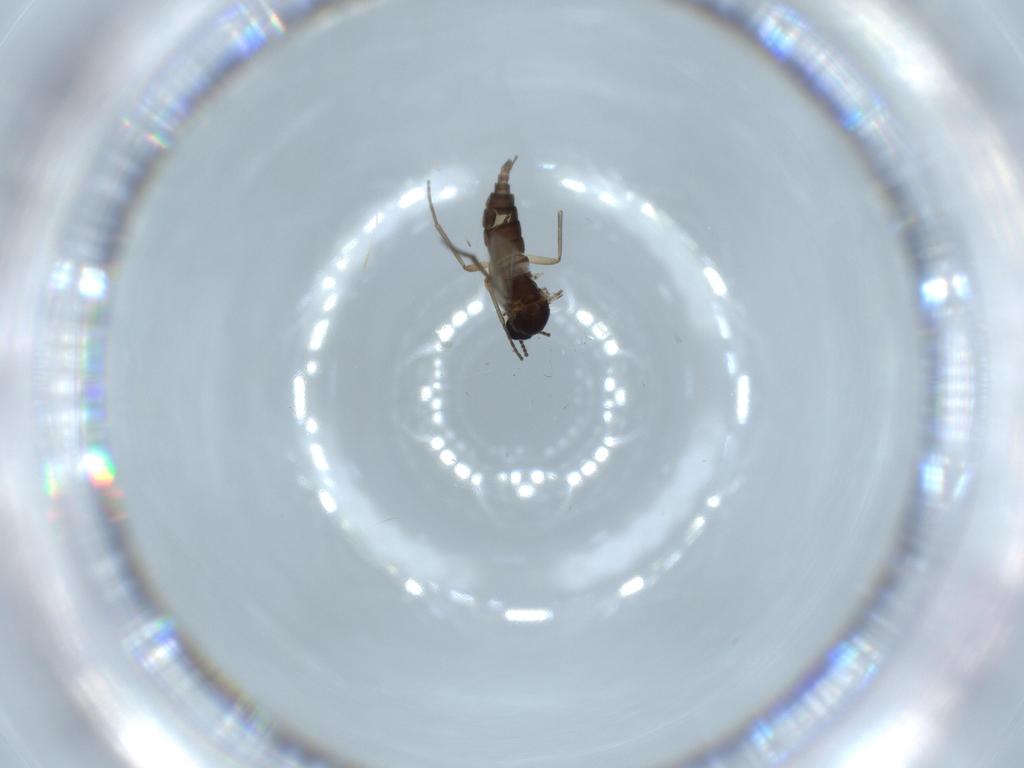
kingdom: Animalia
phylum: Arthropoda
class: Insecta
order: Diptera
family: Sciaridae
